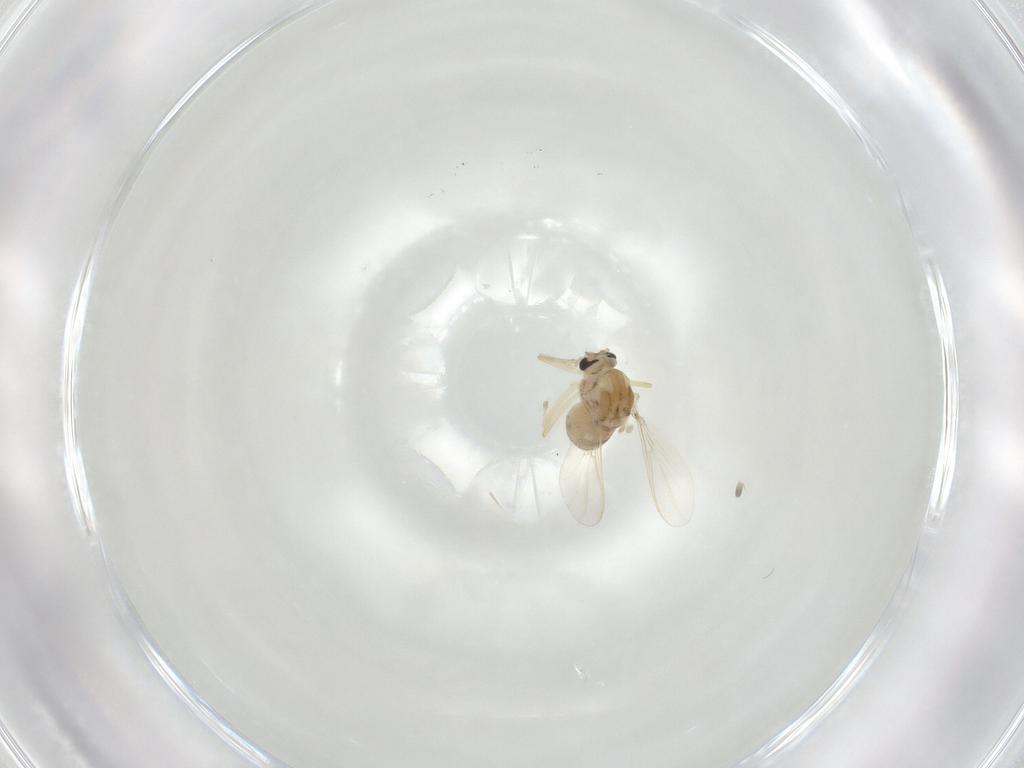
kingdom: Animalia
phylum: Arthropoda
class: Insecta
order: Diptera
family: Chironomidae
